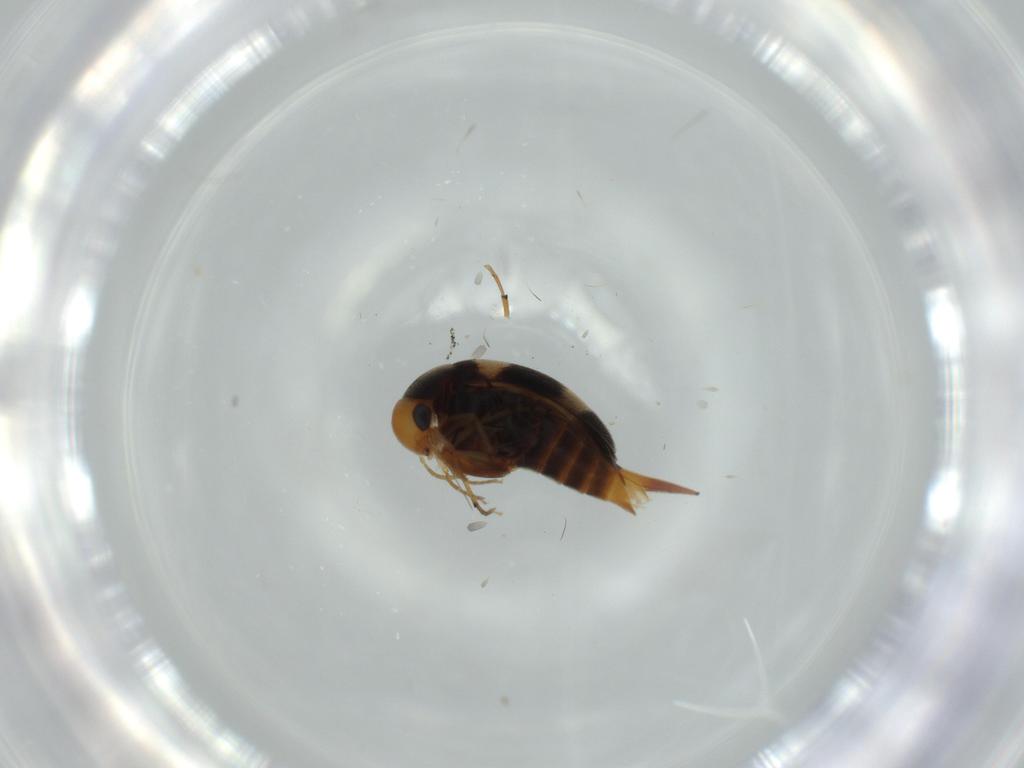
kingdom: Animalia
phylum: Arthropoda
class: Insecta
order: Coleoptera
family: Mordellidae
